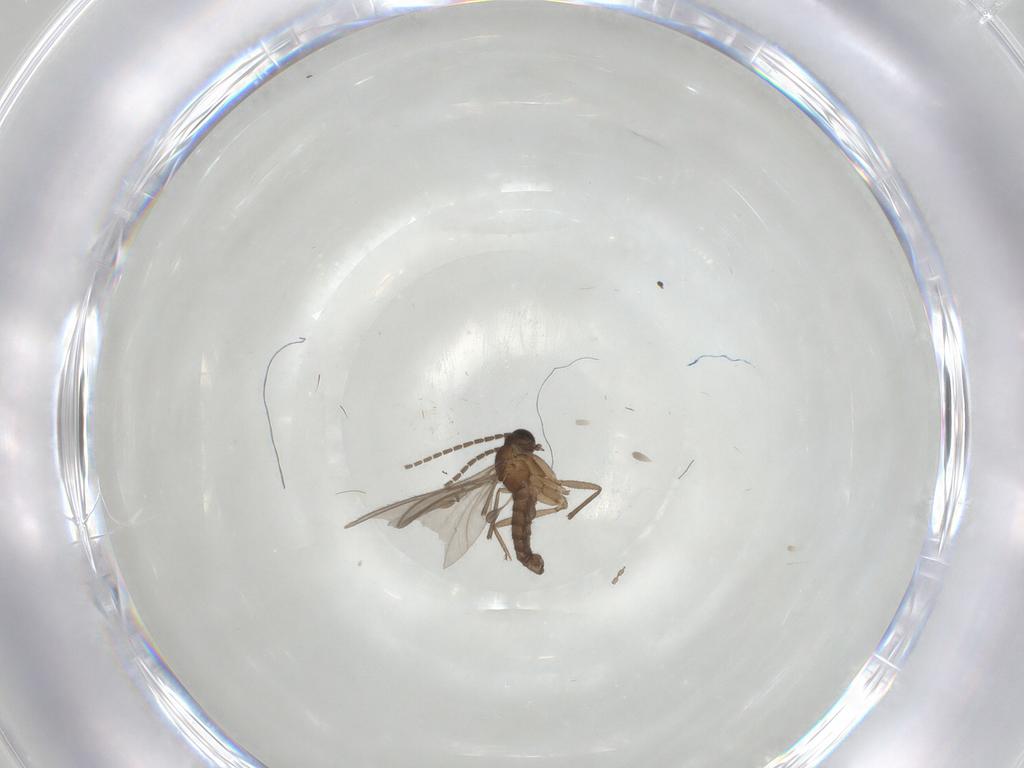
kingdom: Animalia
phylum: Arthropoda
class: Insecta
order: Diptera
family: Chironomidae
